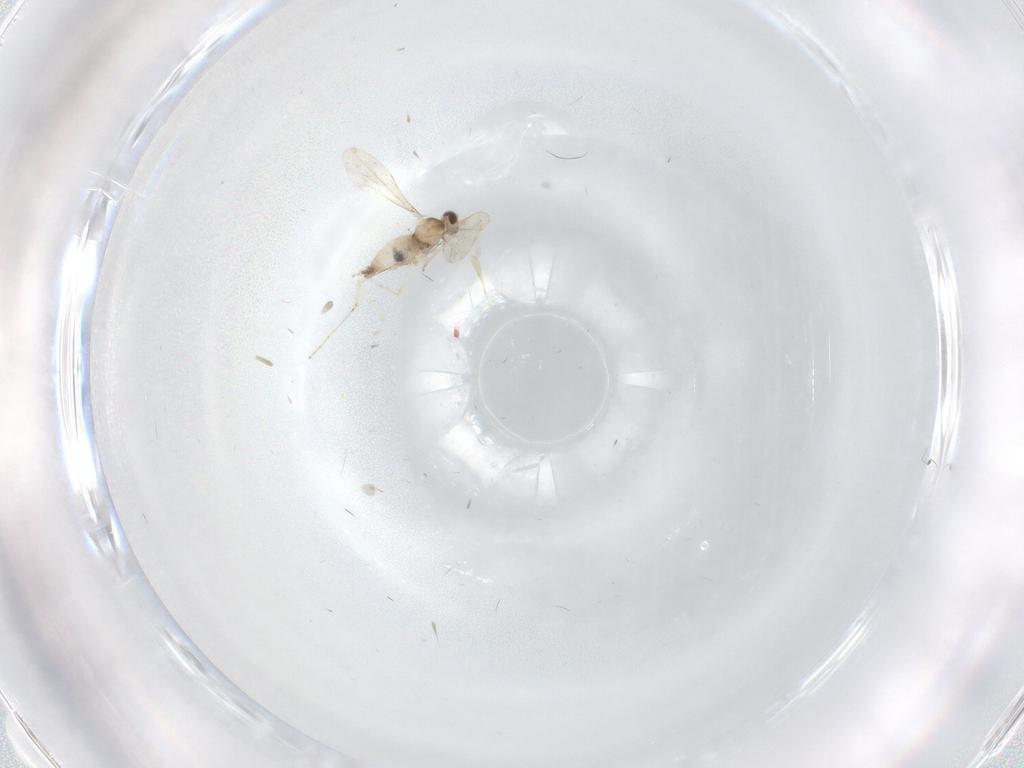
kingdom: Animalia
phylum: Arthropoda
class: Insecta
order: Diptera
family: Cecidomyiidae
